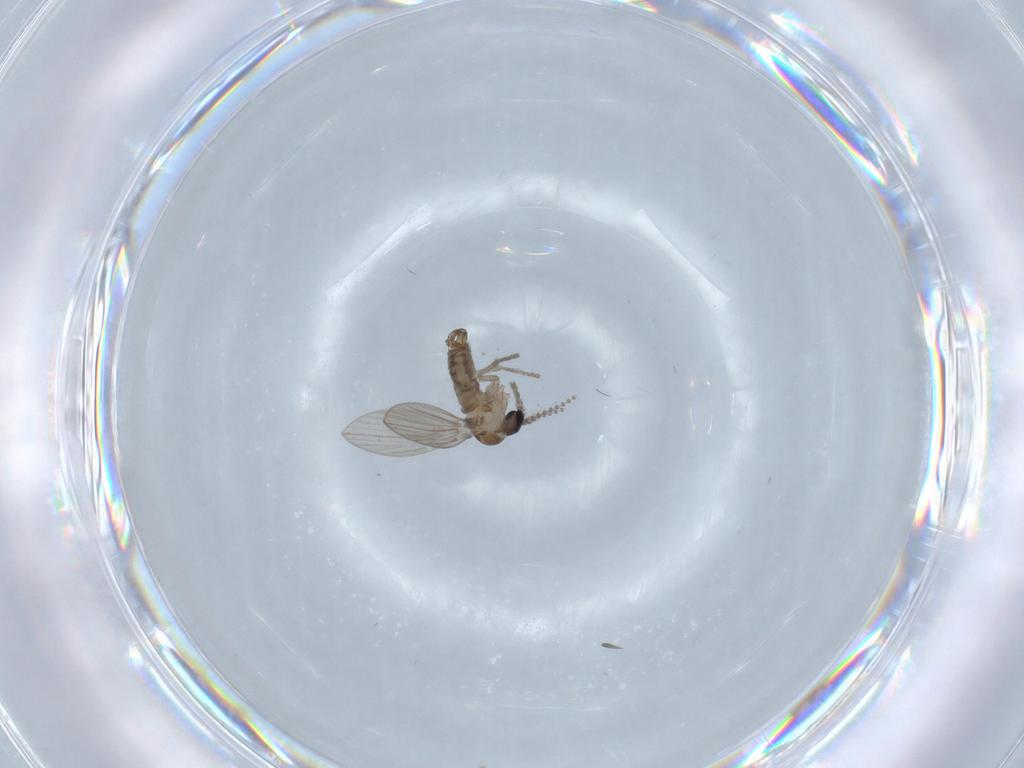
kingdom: Animalia
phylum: Arthropoda
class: Insecta
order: Diptera
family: Psychodidae
